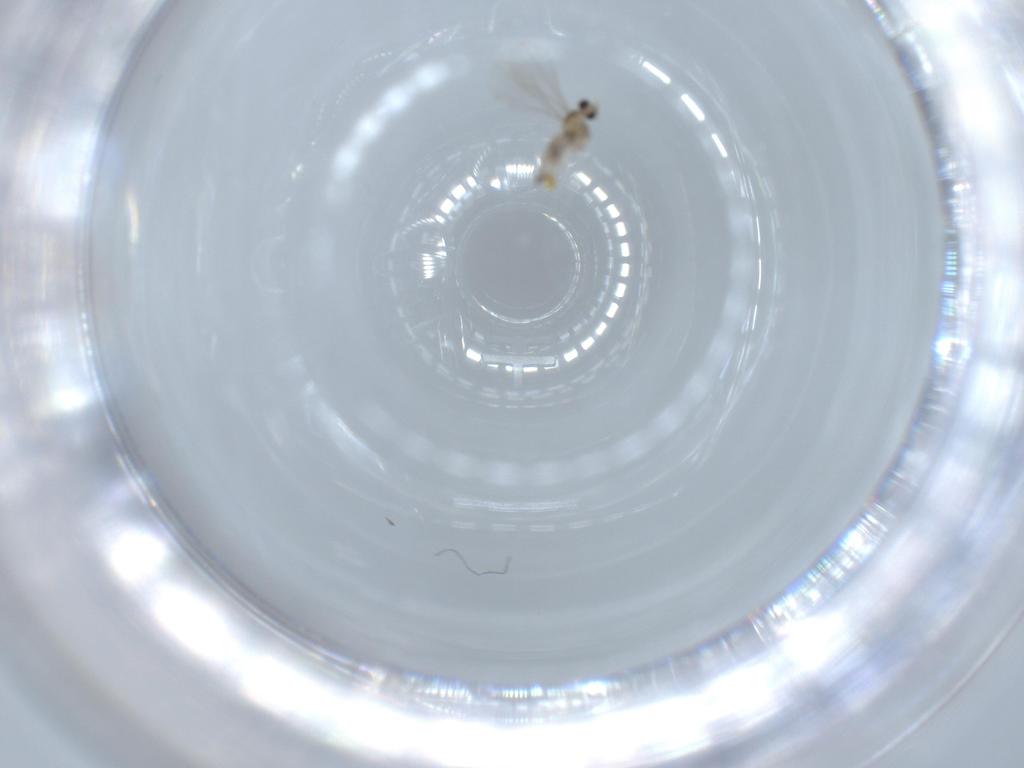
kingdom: Animalia
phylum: Arthropoda
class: Insecta
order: Diptera
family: Cecidomyiidae
